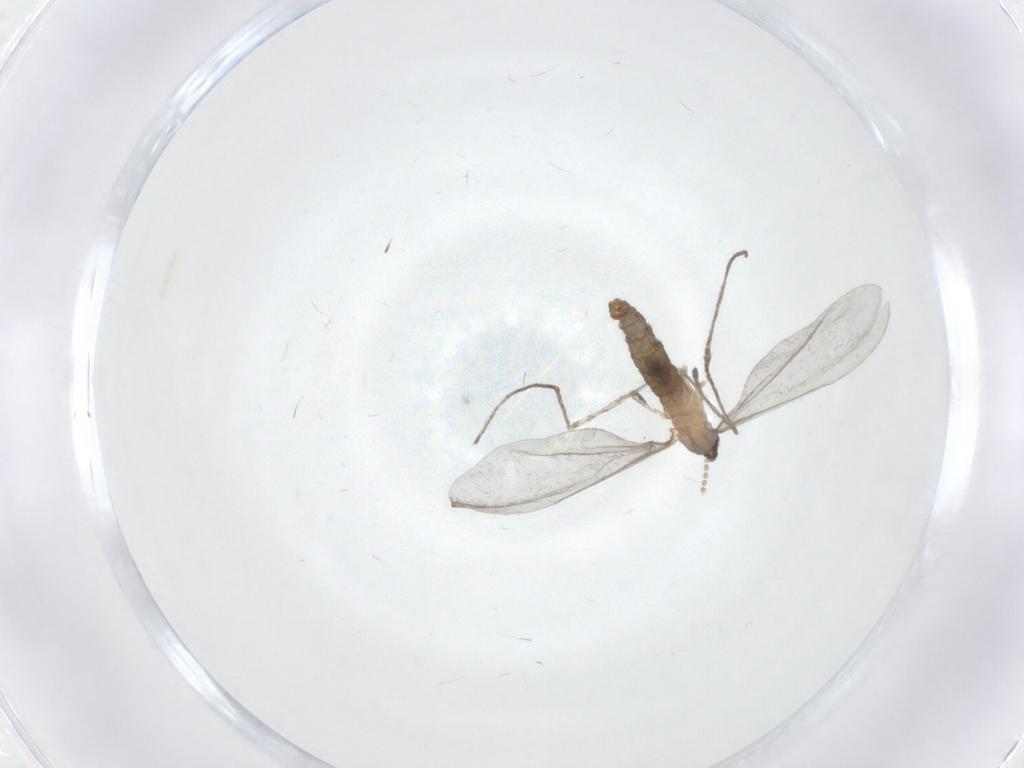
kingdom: Animalia
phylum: Arthropoda
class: Insecta
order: Diptera
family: Cecidomyiidae
